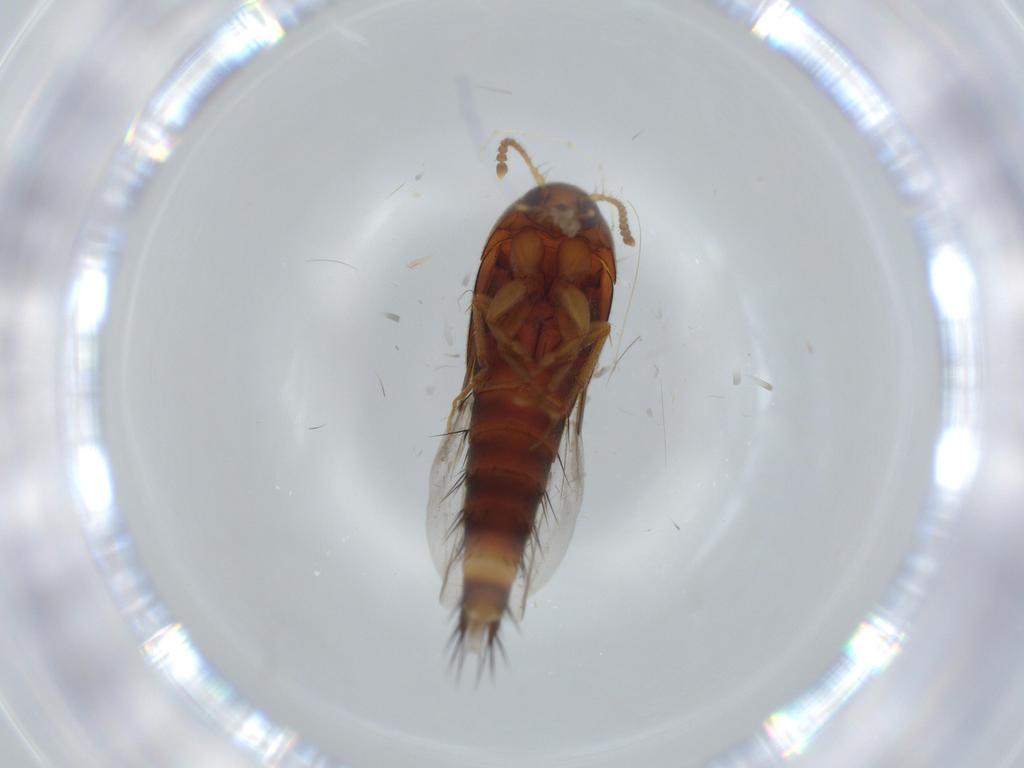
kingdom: Animalia
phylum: Arthropoda
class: Insecta
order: Coleoptera
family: Staphylinidae
